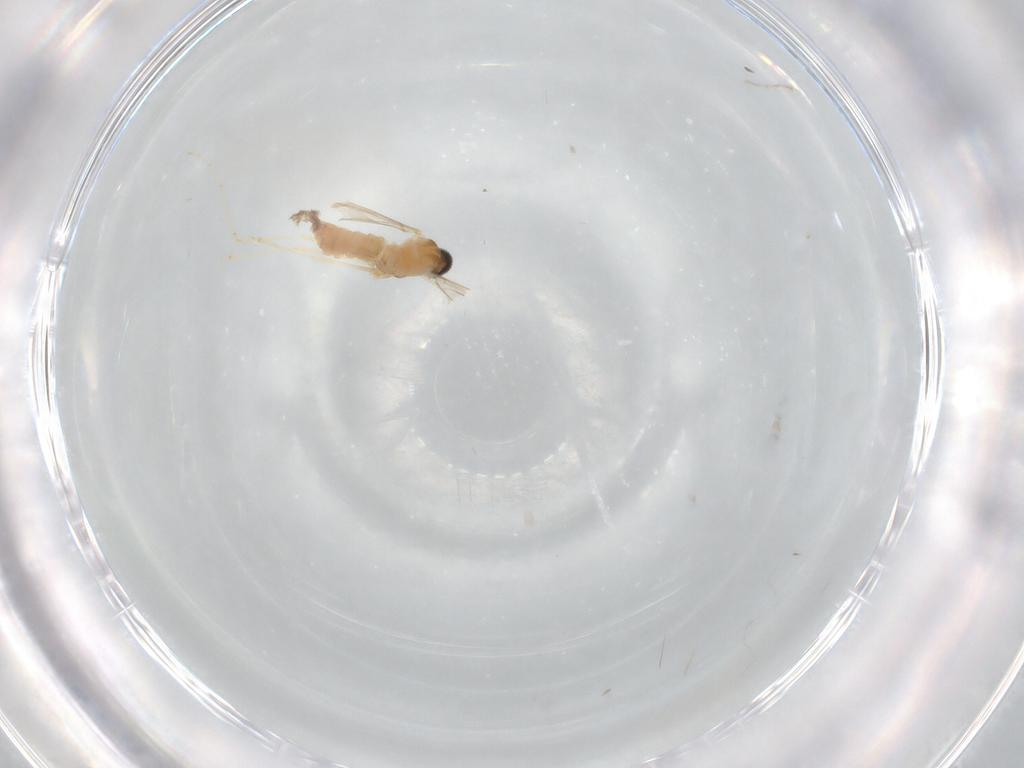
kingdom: Animalia
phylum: Arthropoda
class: Insecta
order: Diptera
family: Cecidomyiidae
